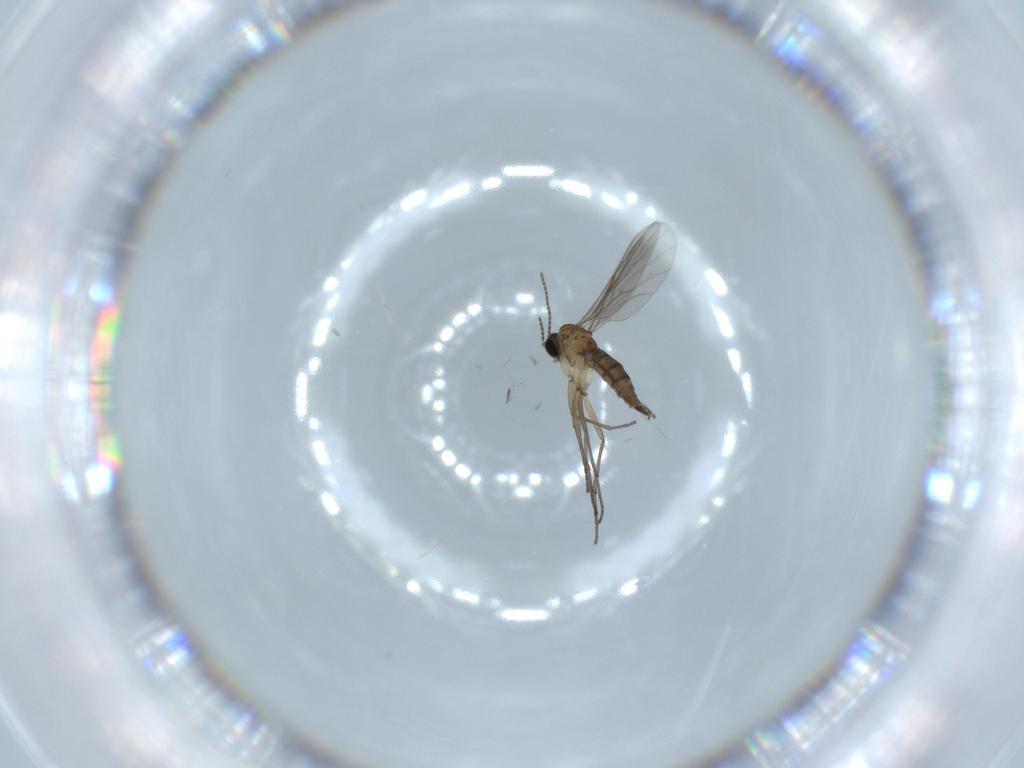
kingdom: Animalia
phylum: Arthropoda
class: Insecta
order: Diptera
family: Sciaridae
